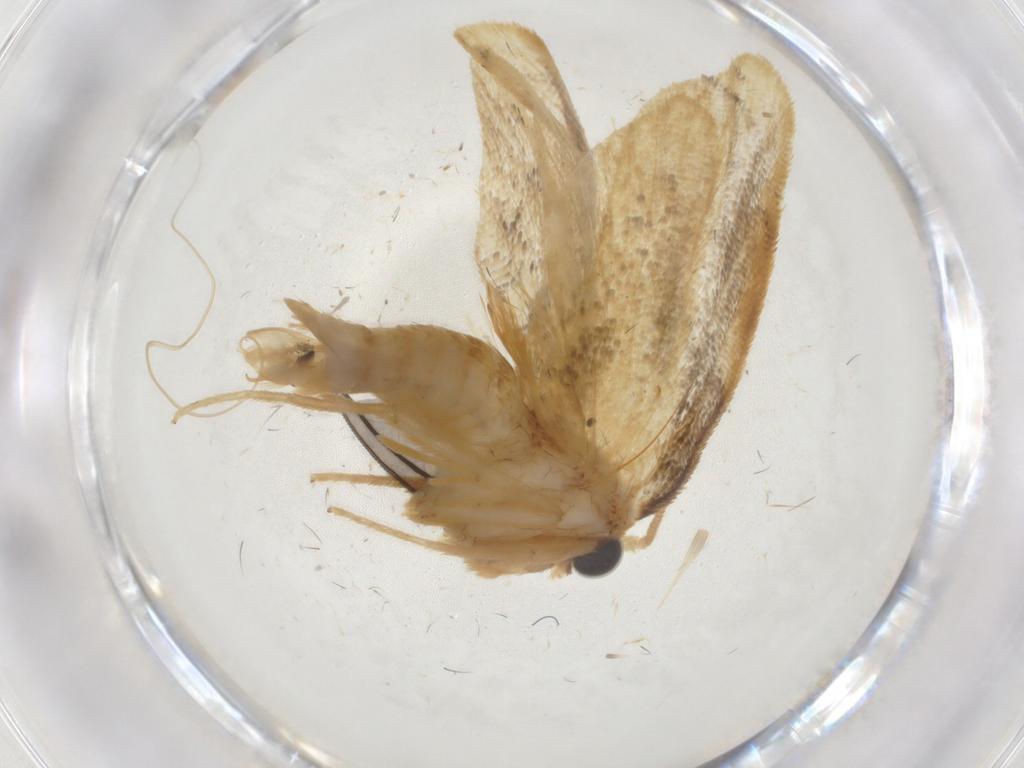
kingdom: Animalia
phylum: Arthropoda
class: Insecta
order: Lepidoptera
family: Psychidae
